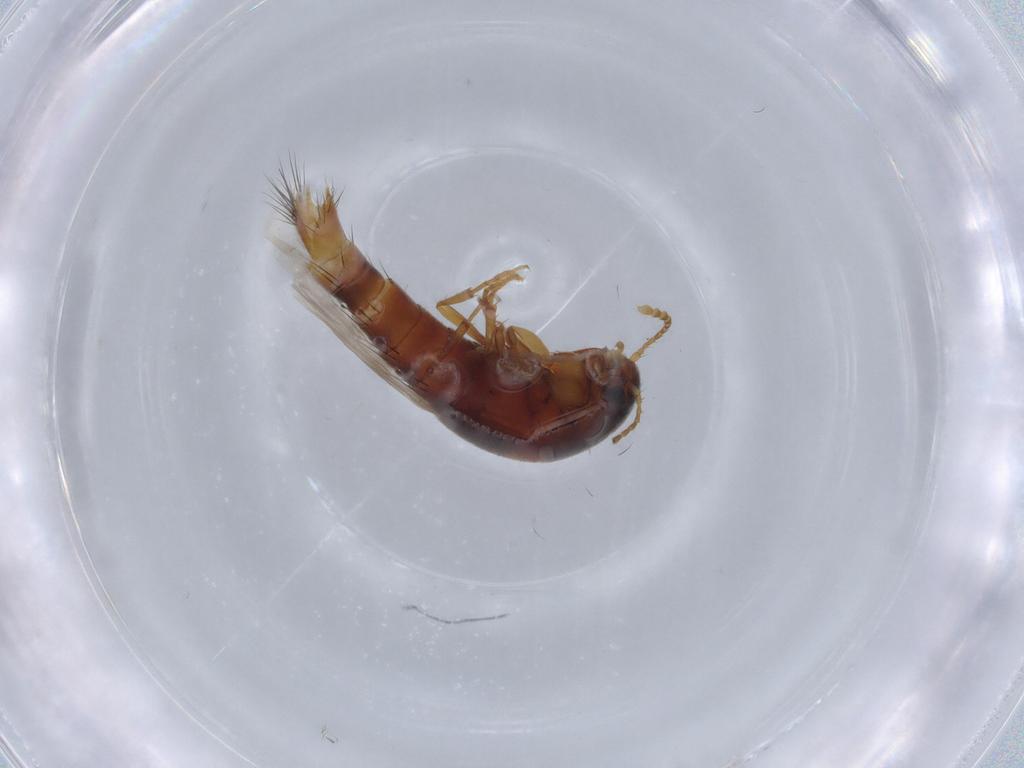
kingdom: Animalia
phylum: Arthropoda
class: Insecta
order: Coleoptera
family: Staphylinidae
